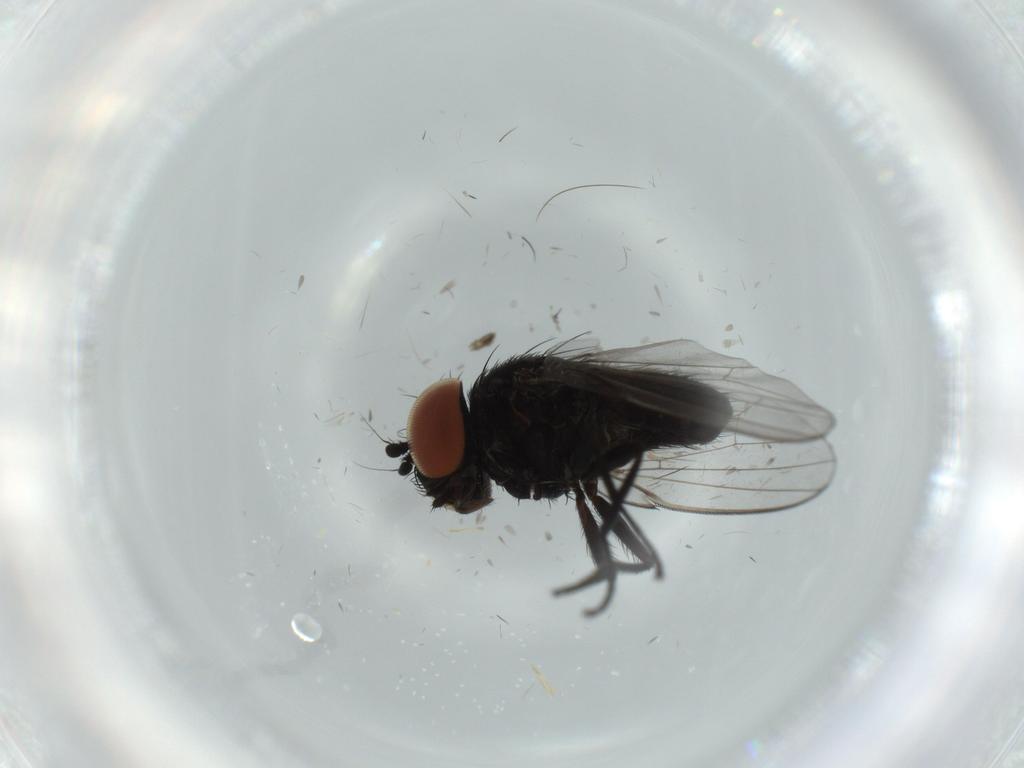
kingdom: Animalia
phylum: Arthropoda
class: Insecta
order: Diptera
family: Milichiidae
